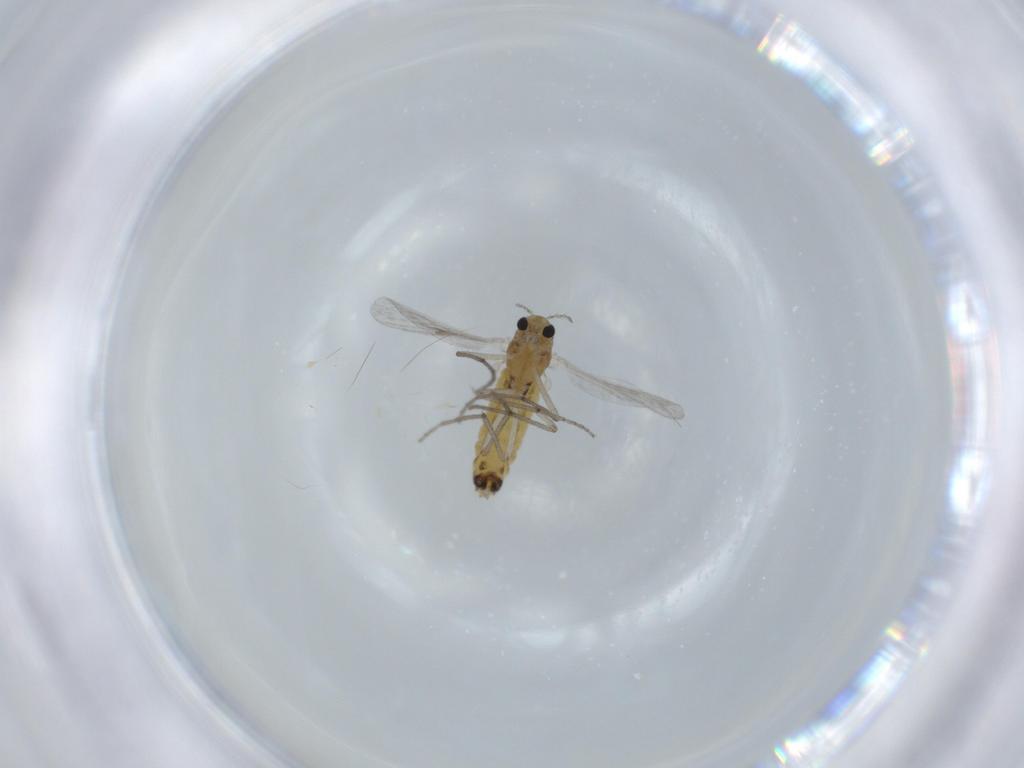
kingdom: Animalia
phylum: Arthropoda
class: Insecta
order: Diptera
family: Chironomidae
